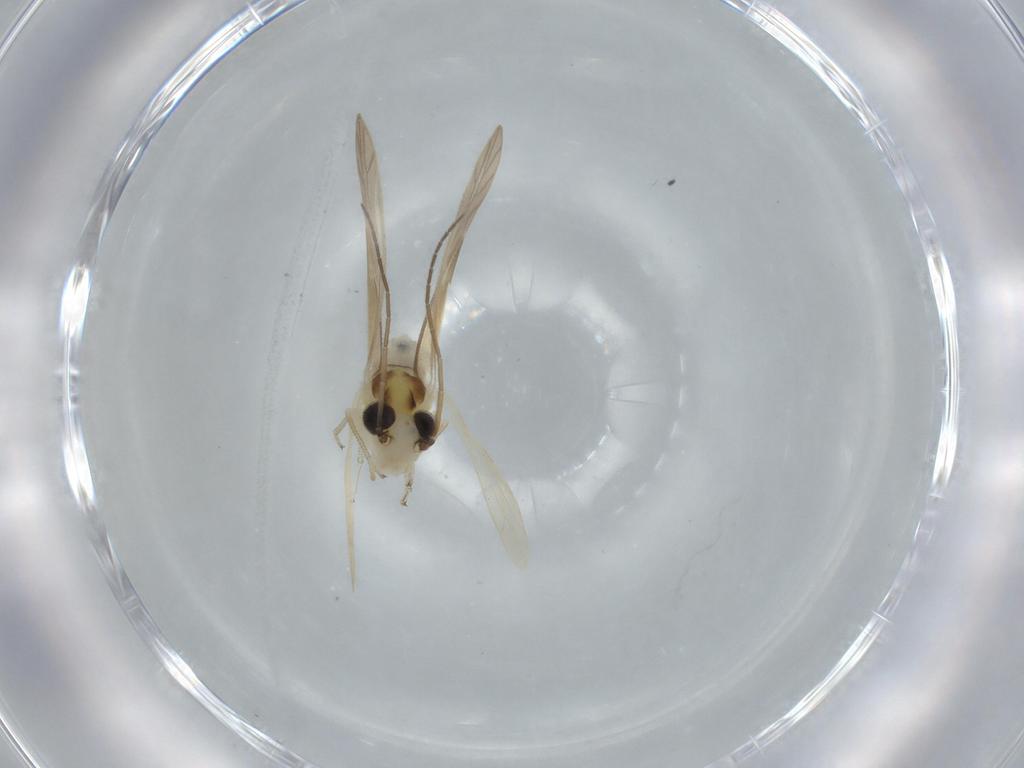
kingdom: Animalia
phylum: Arthropoda
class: Insecta
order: Psocodea
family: Caeciliusidae
